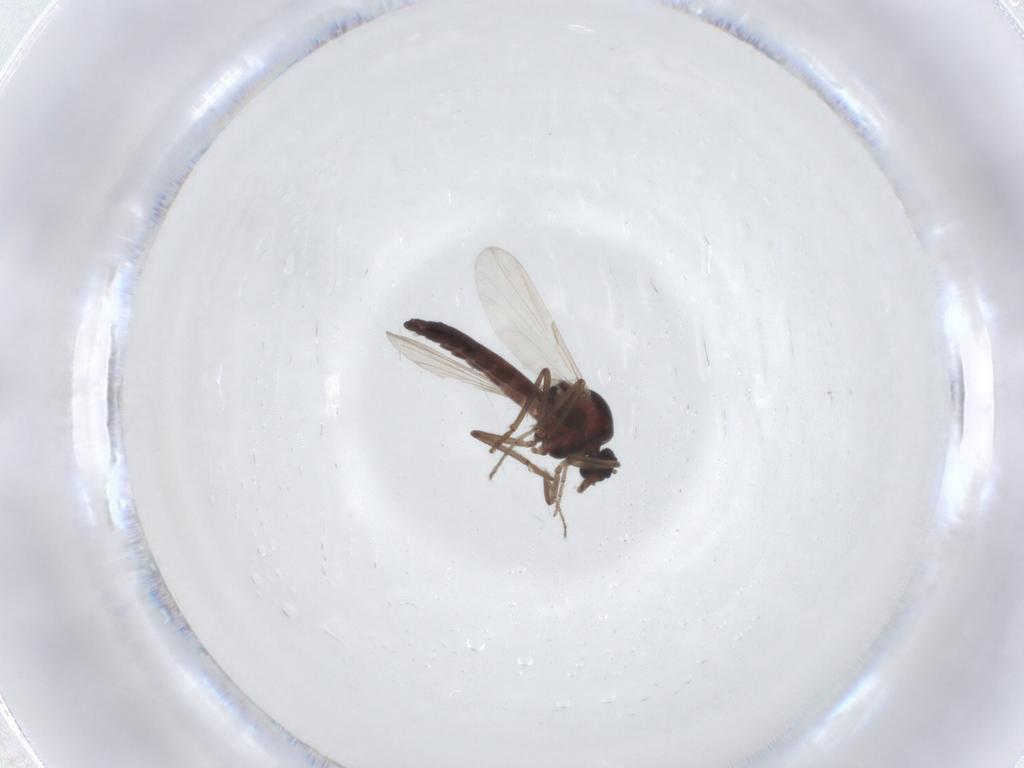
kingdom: Animalia
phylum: Arthropoda
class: Insecta
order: Diptera
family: Ceratopogonidae
